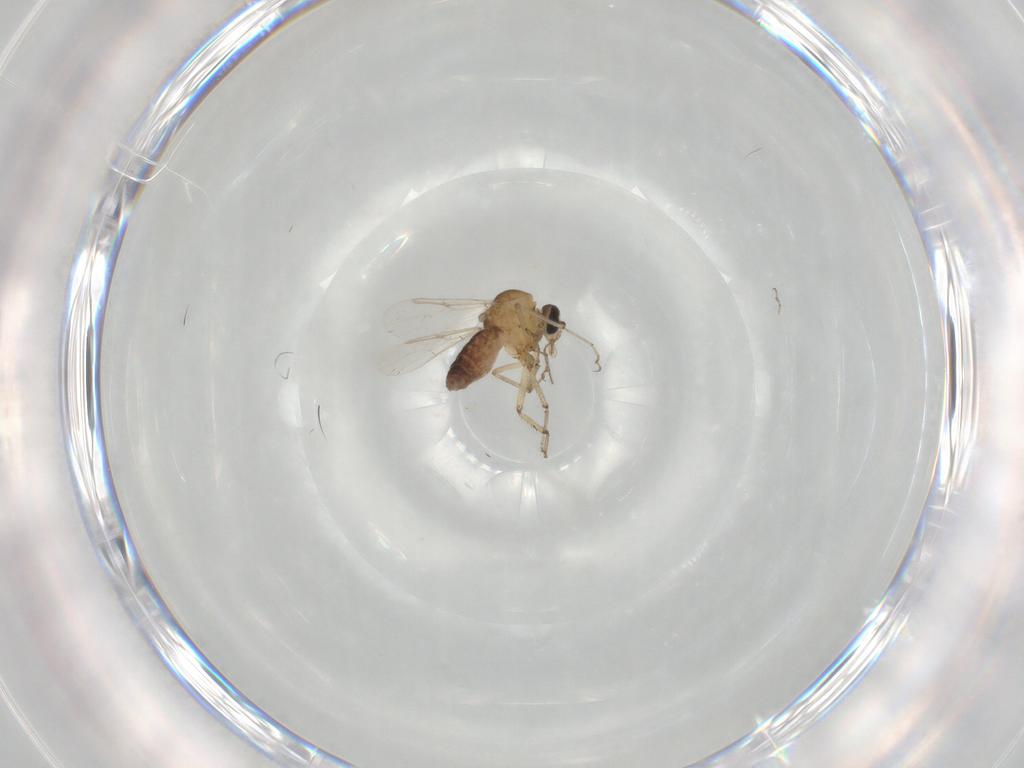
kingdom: Animalia
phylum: Arthropoda
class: Insecta
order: Diptera
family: Ceratopogonidae
